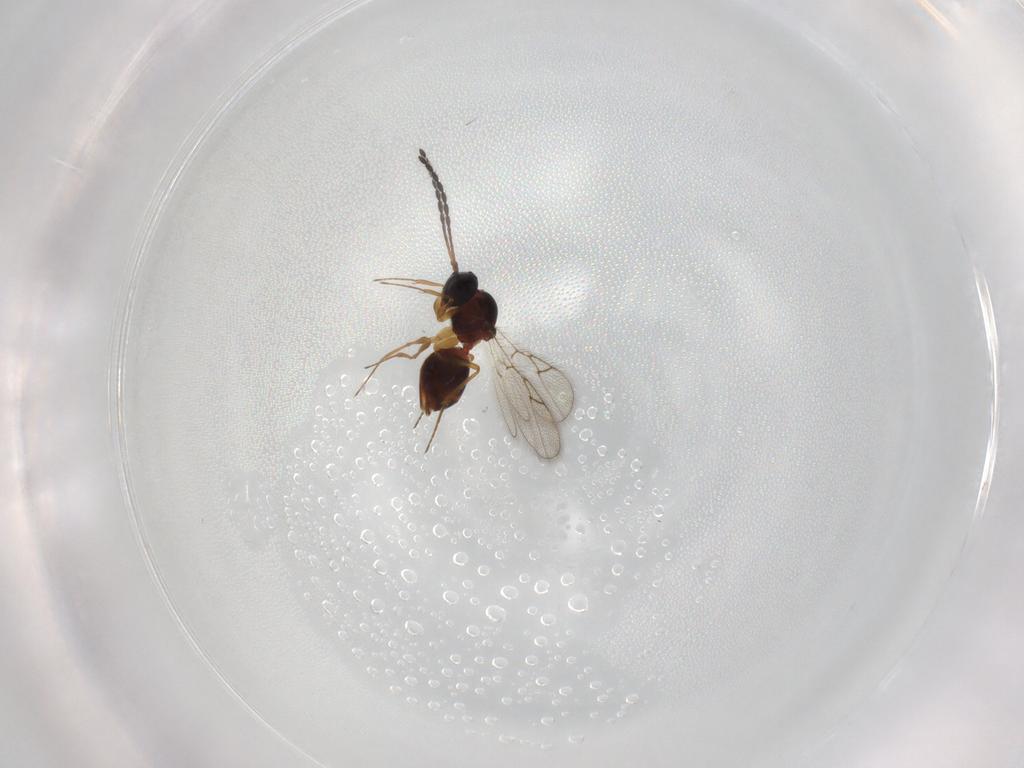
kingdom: Animalia
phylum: Arthropoda
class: Insecta
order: Hymenoptera
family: Figitidae
